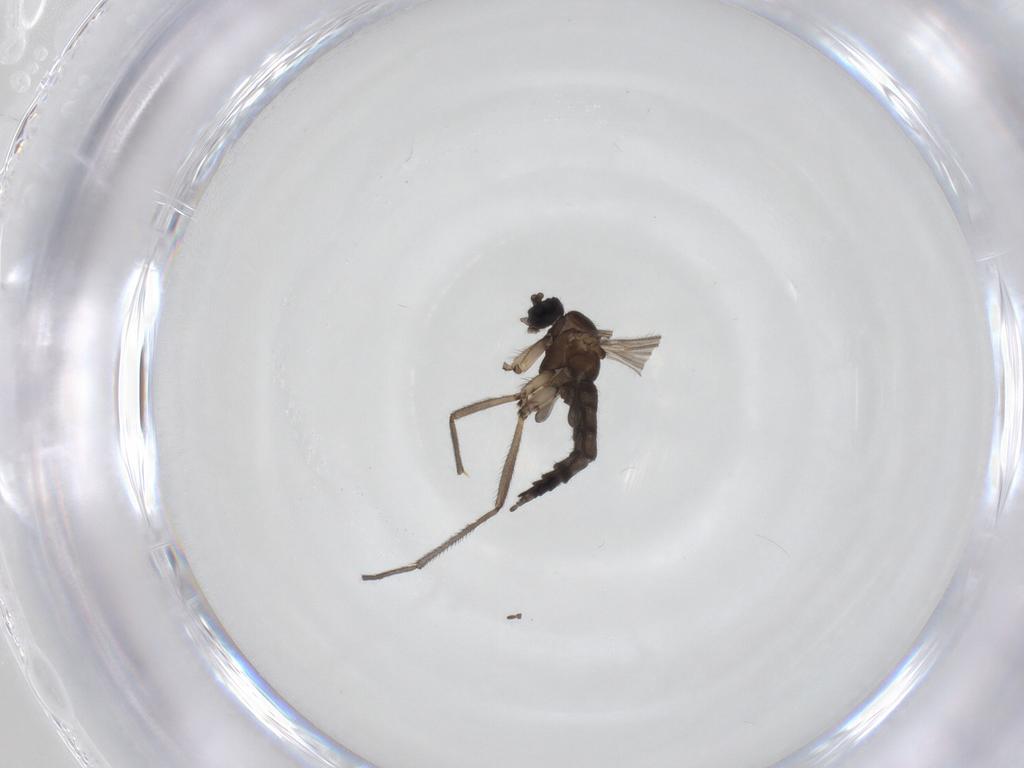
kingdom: Animalia
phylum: Arthropoda
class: Insecta
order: Diptera
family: Sciaridae
